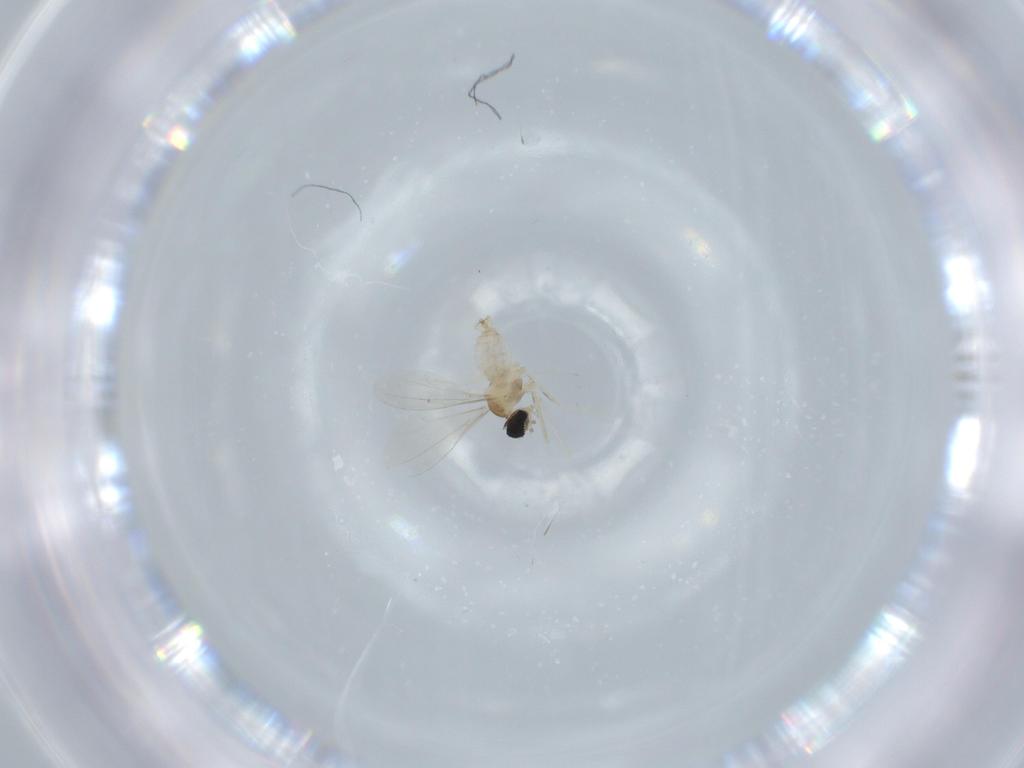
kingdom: Animalia
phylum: Arthropoda
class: Insecta
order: Diptera
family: Cecidomyiidae
